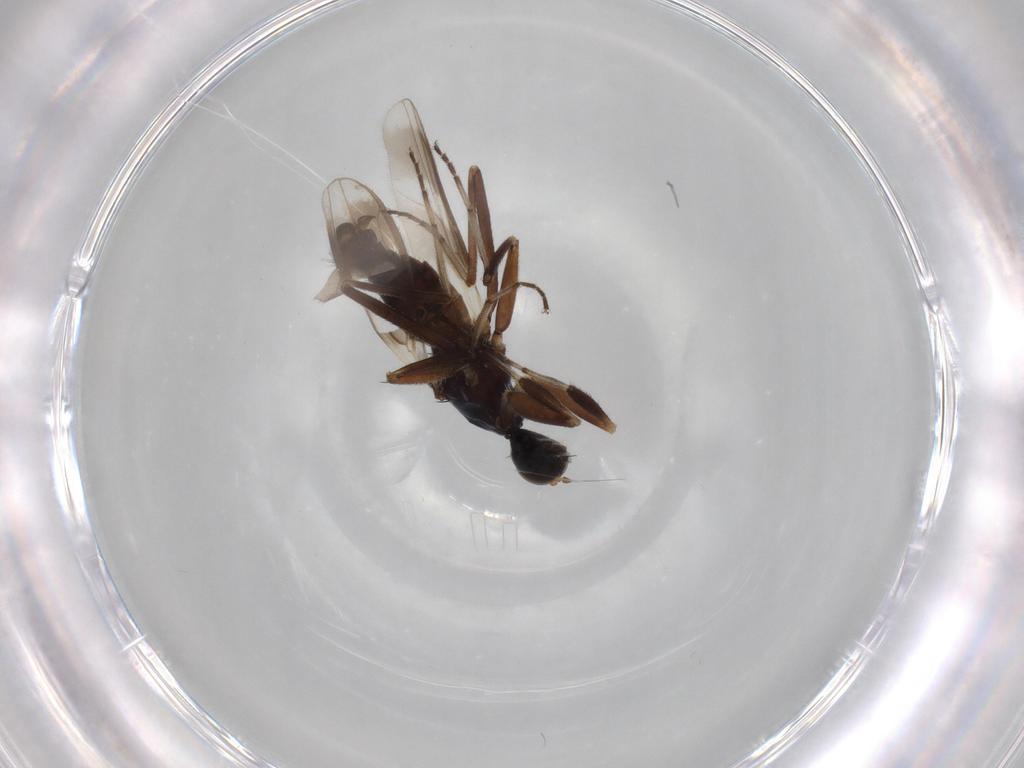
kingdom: Animalia
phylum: Arthropoda
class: Insecta
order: Diptera
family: Hybotidae
